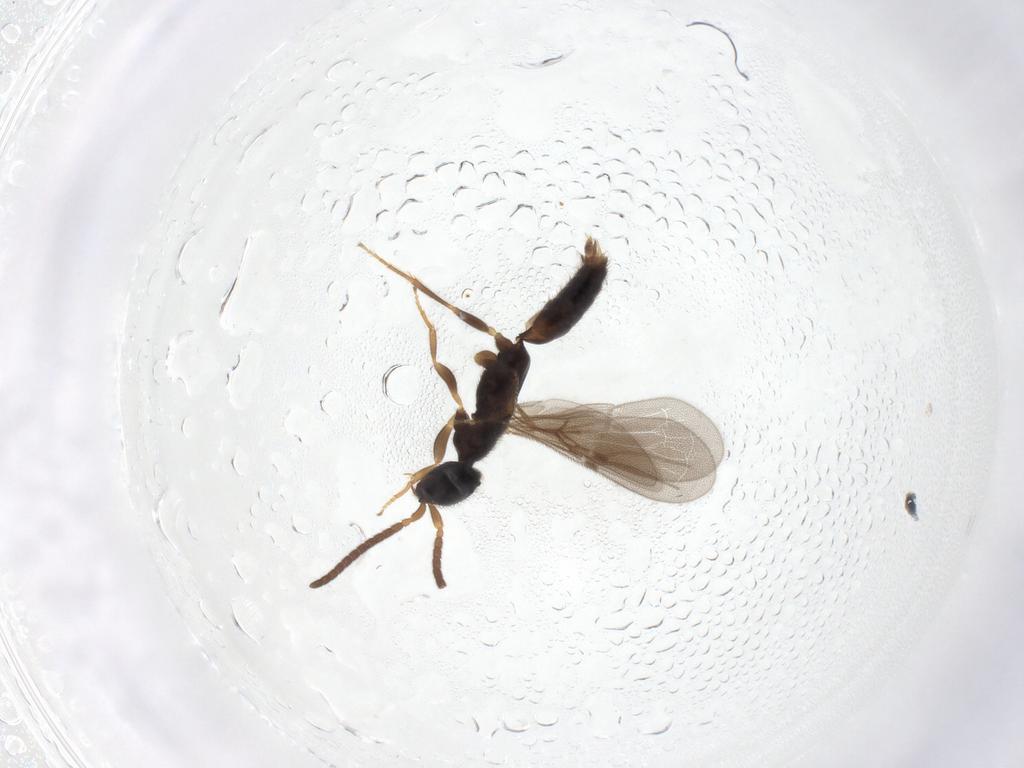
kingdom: Animalia
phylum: Arthropoda
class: Insecta
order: Hymenoptera
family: Bethylidae
